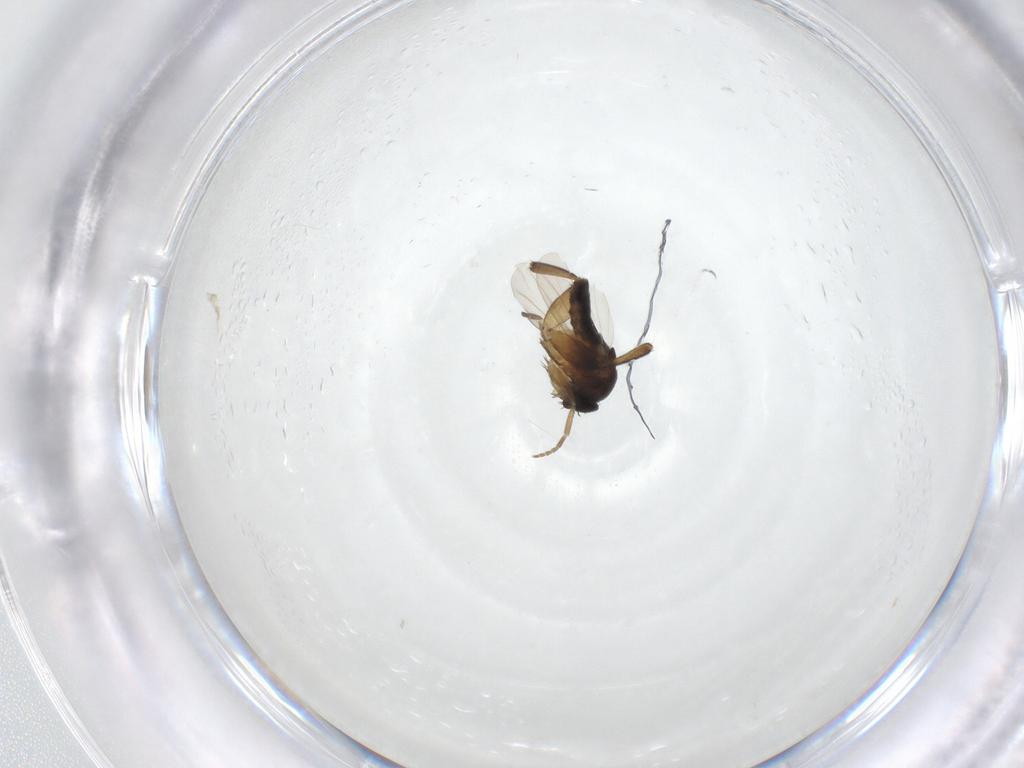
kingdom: Animalia
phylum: Arthropoda
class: Insecta
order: Diptera
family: Phoridae
